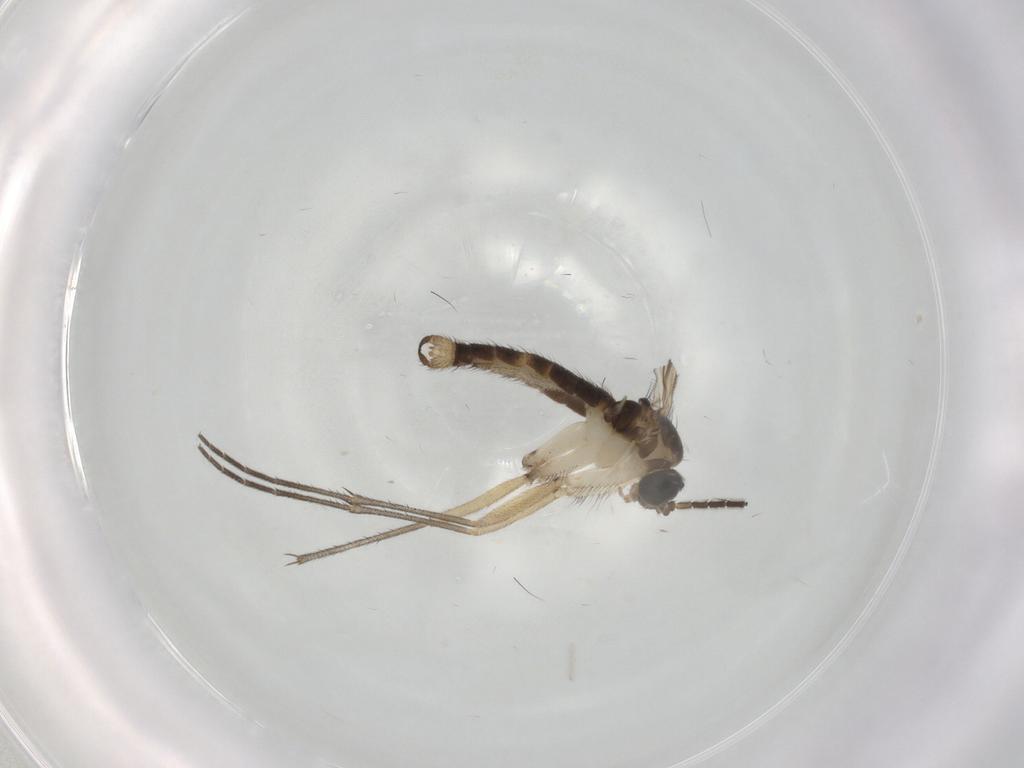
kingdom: Animalia
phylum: Arthropoda
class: Insecta
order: Diptera
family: Sciaridae
